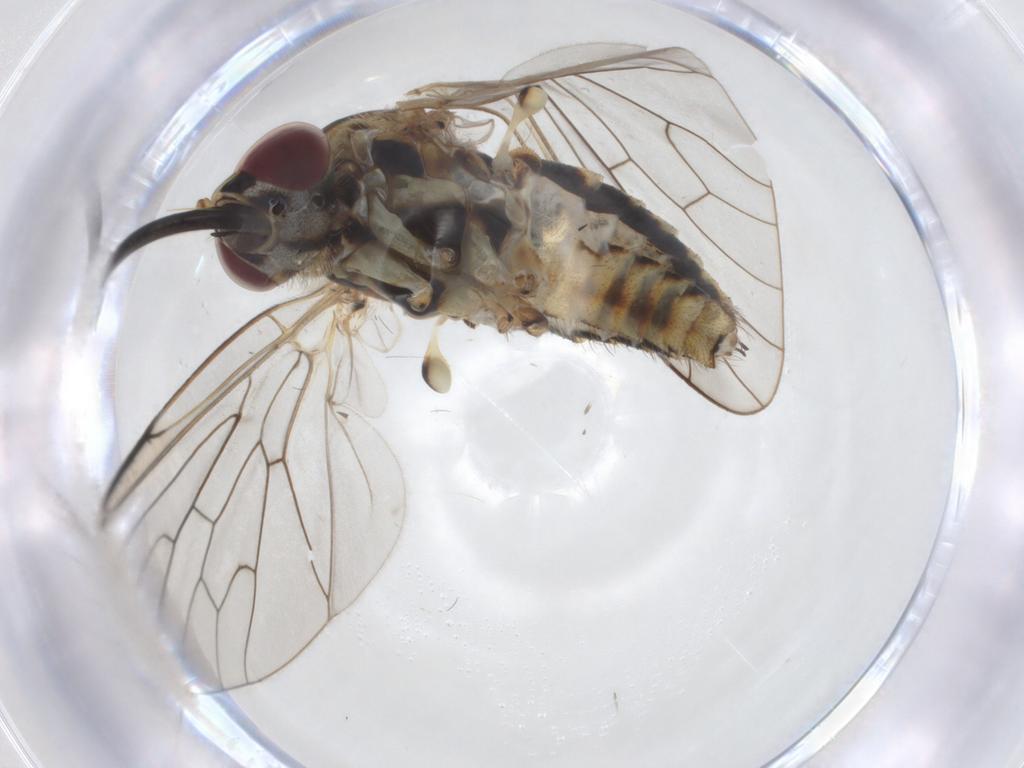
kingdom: Animalia
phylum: Arthropoda
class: Insecta
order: Diptera
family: Bombyliidae
